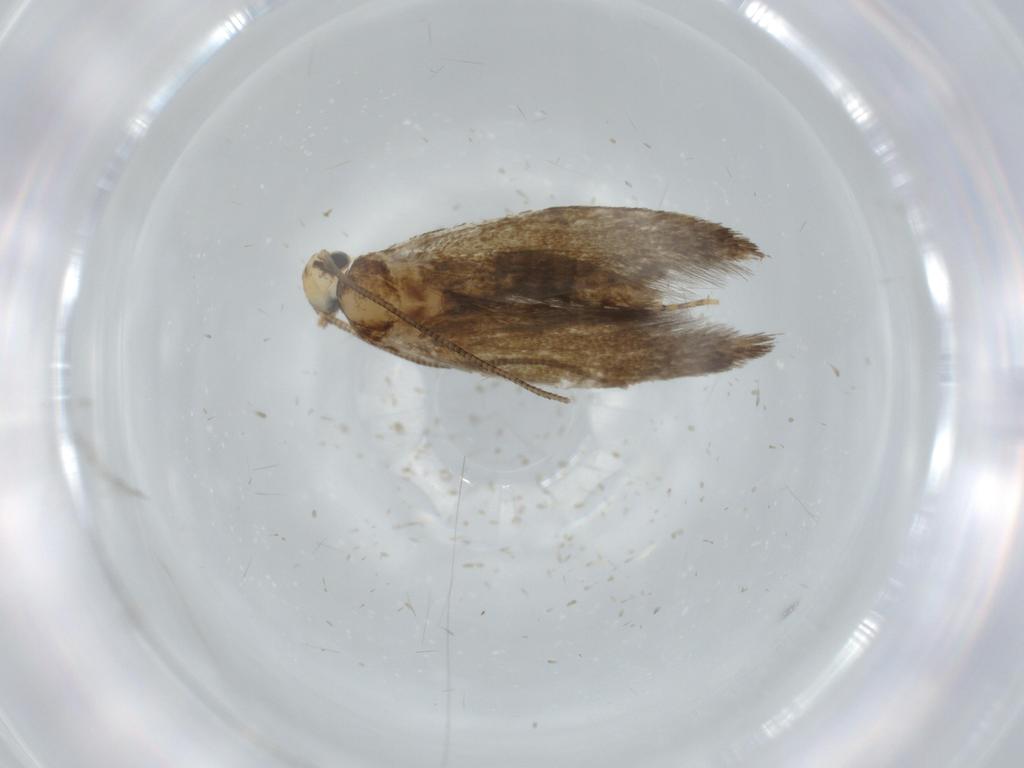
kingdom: Animalia
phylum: Arthropoda
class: Insecta
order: Lepidoptera
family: Tineidae
